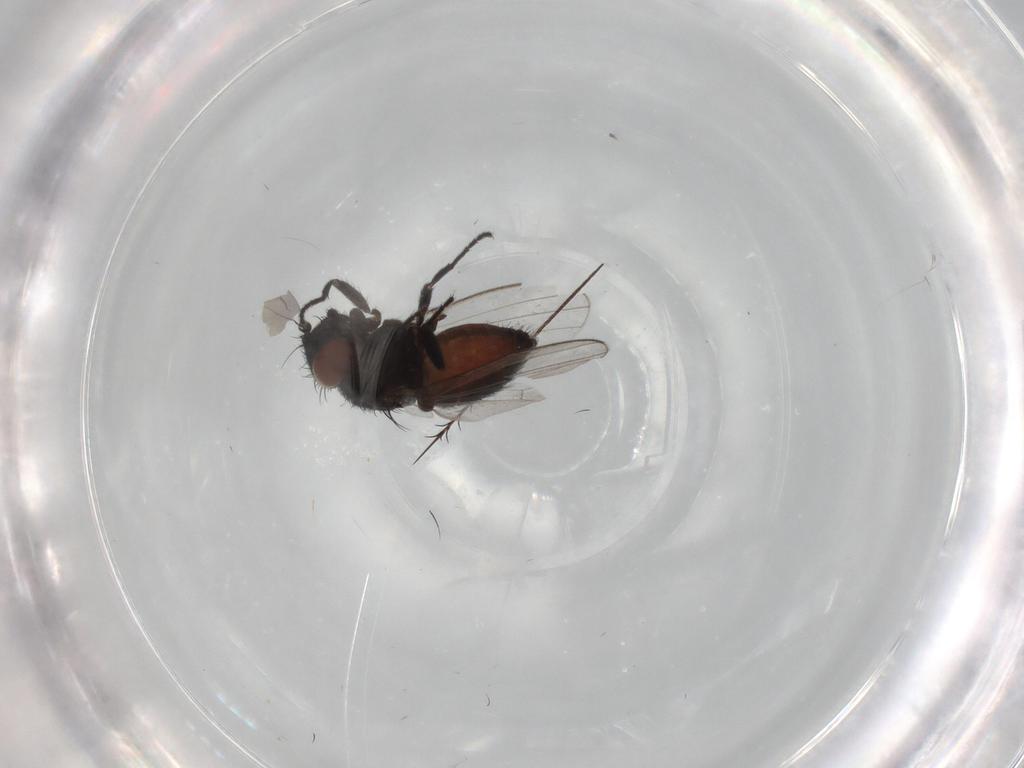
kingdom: Animalia
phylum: Arthropoda
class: Insecta
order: Diptera
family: Milichiidae
